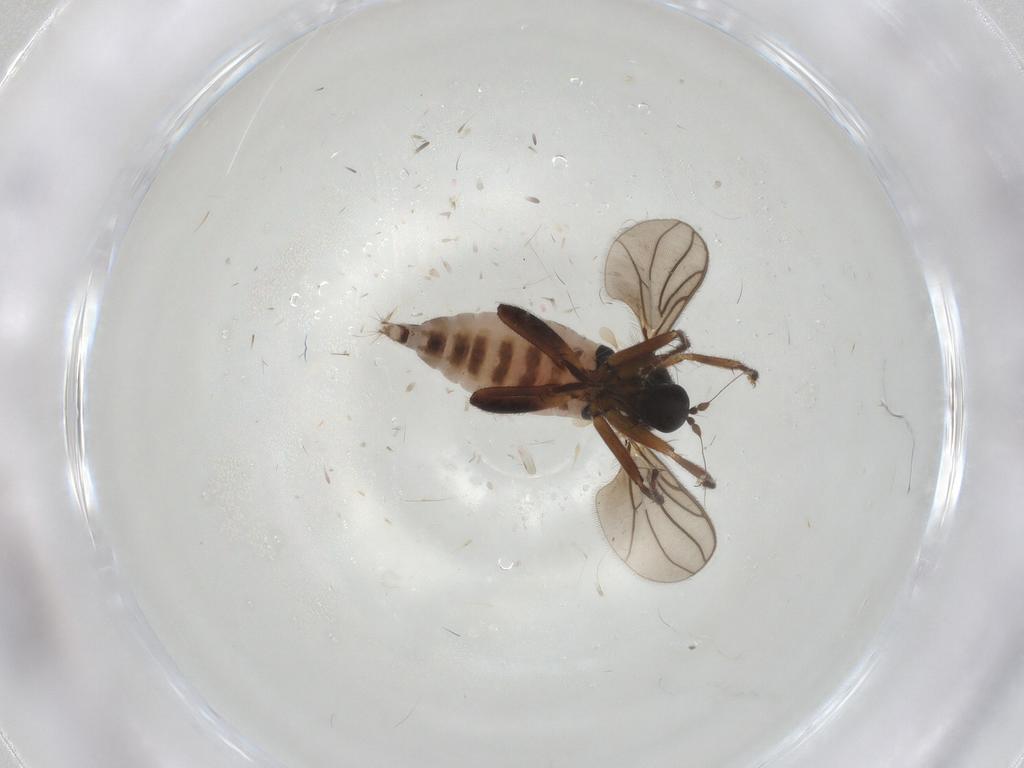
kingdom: Animalia
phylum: Arthropoda
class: Insecta
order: Diptera
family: Hybotidae
